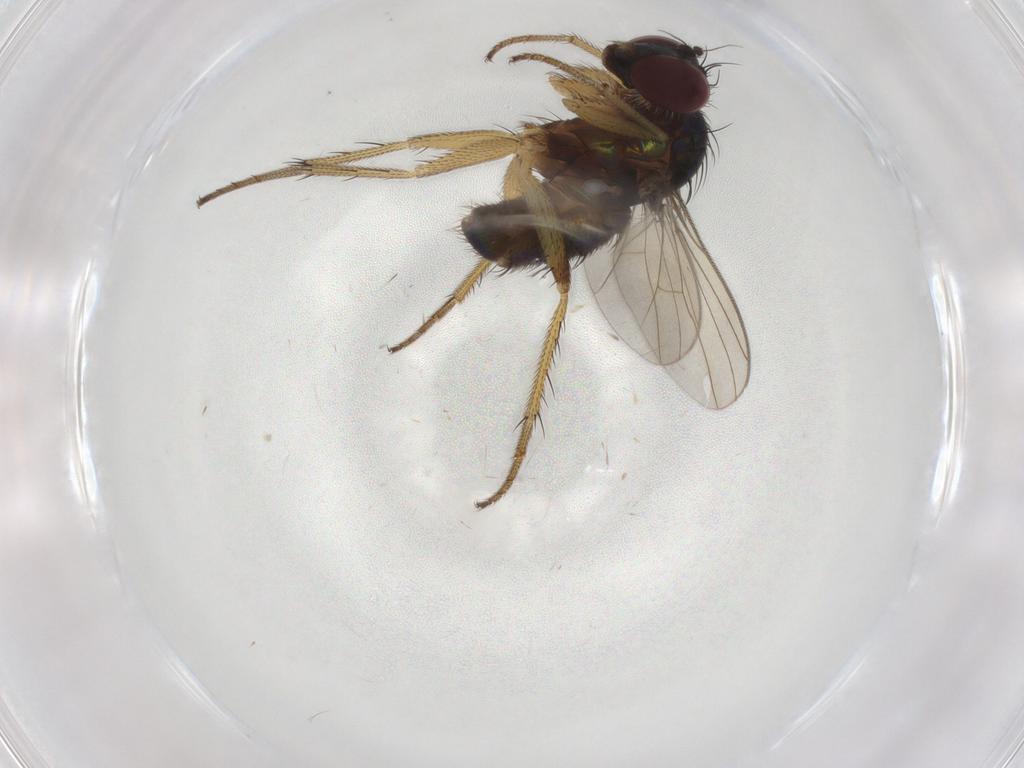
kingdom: Animalia
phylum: Arthropoda
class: Insecta
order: Diptera
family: Dolichopodidae
